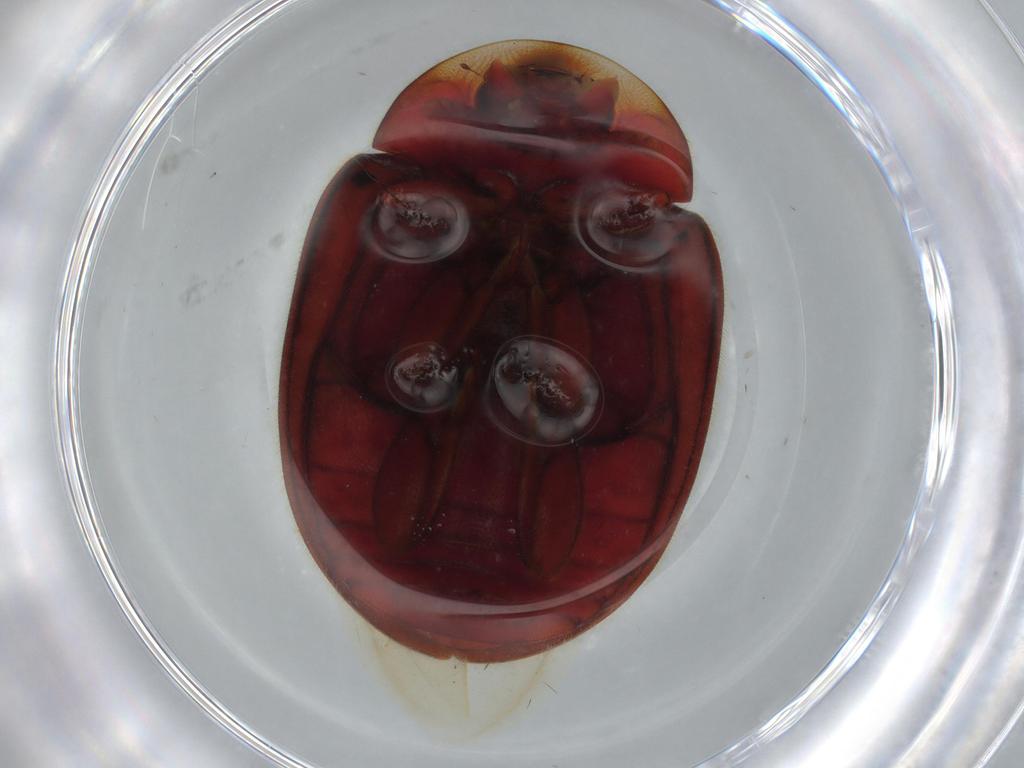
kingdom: Animalia
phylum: Arthropoda
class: Insecta
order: Coleoptera
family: Coccinellidae
